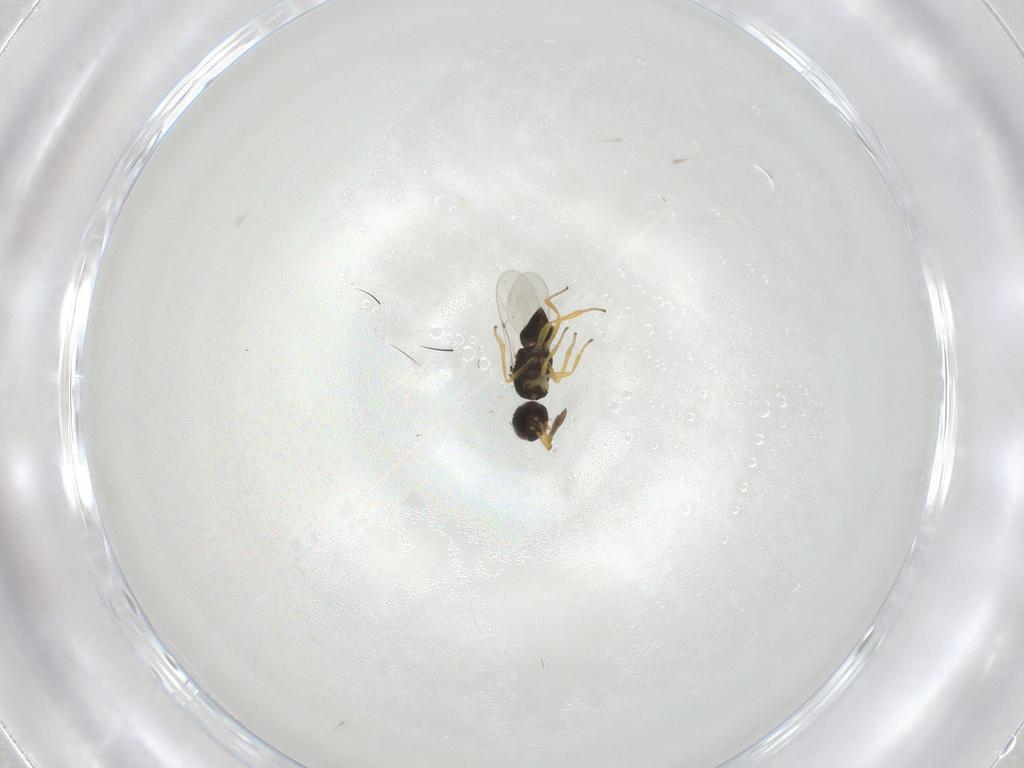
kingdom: Animalia
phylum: Arthropoda
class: Insecta
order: Hymenoptera
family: Encyrtidae
